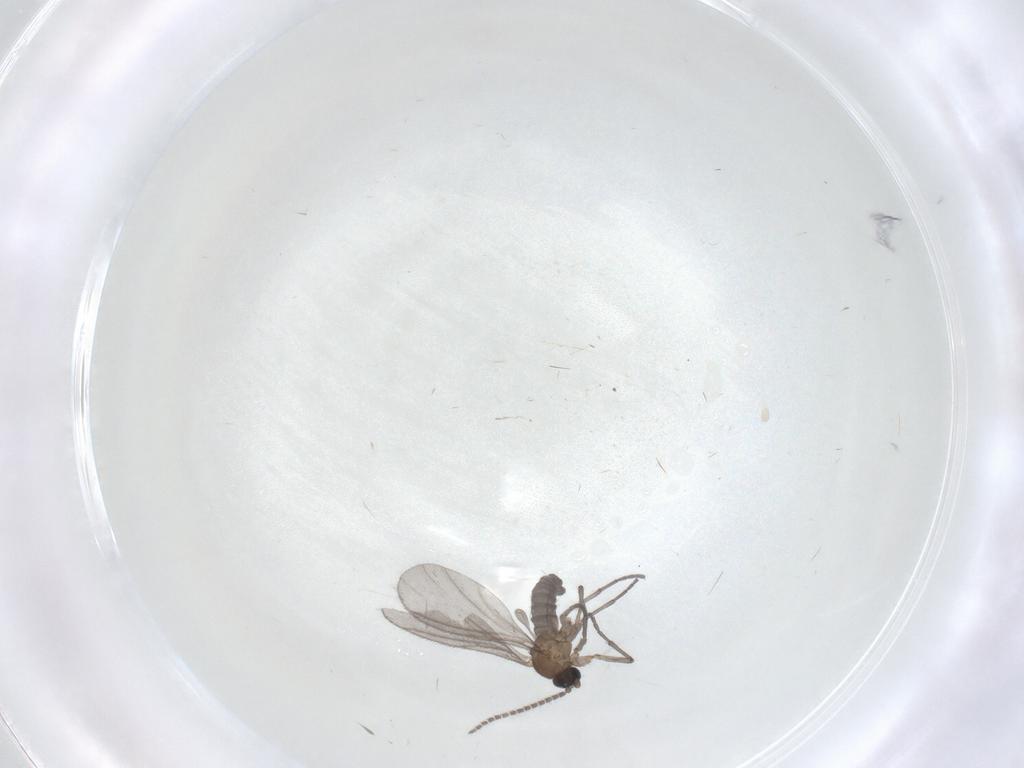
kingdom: Animalia
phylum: Arthropoda
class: Insecta
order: Diptera
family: Sciaridae
